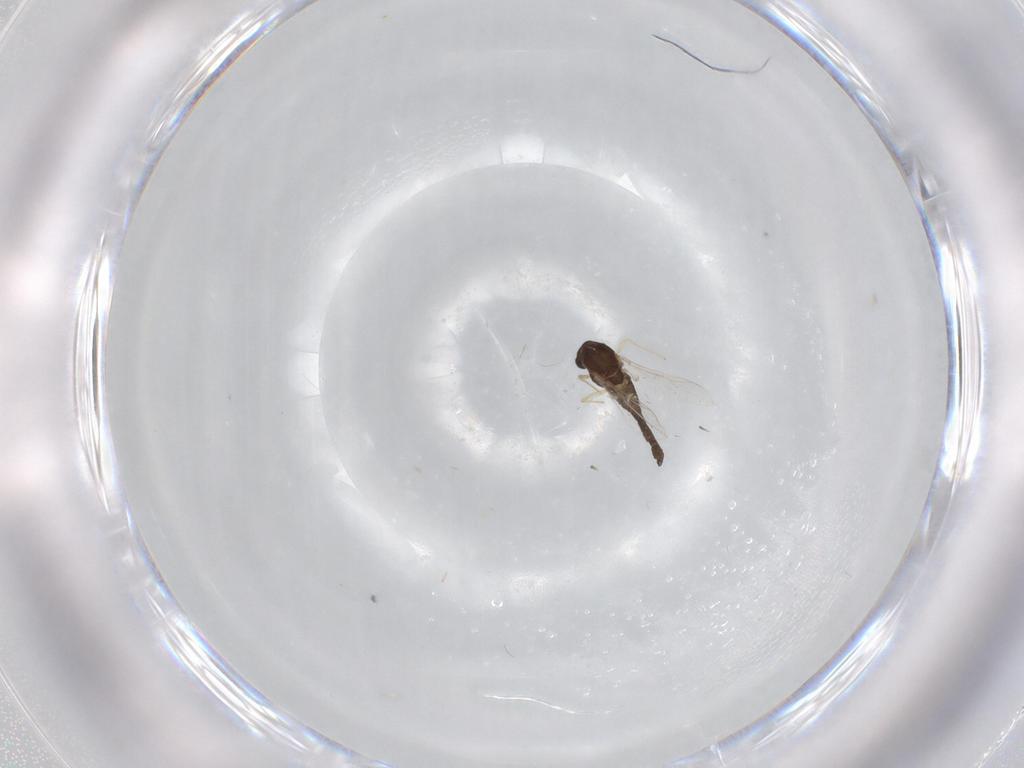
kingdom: Animalia
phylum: Arthropoda
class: Insecta
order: Diptera
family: Chironomidae
